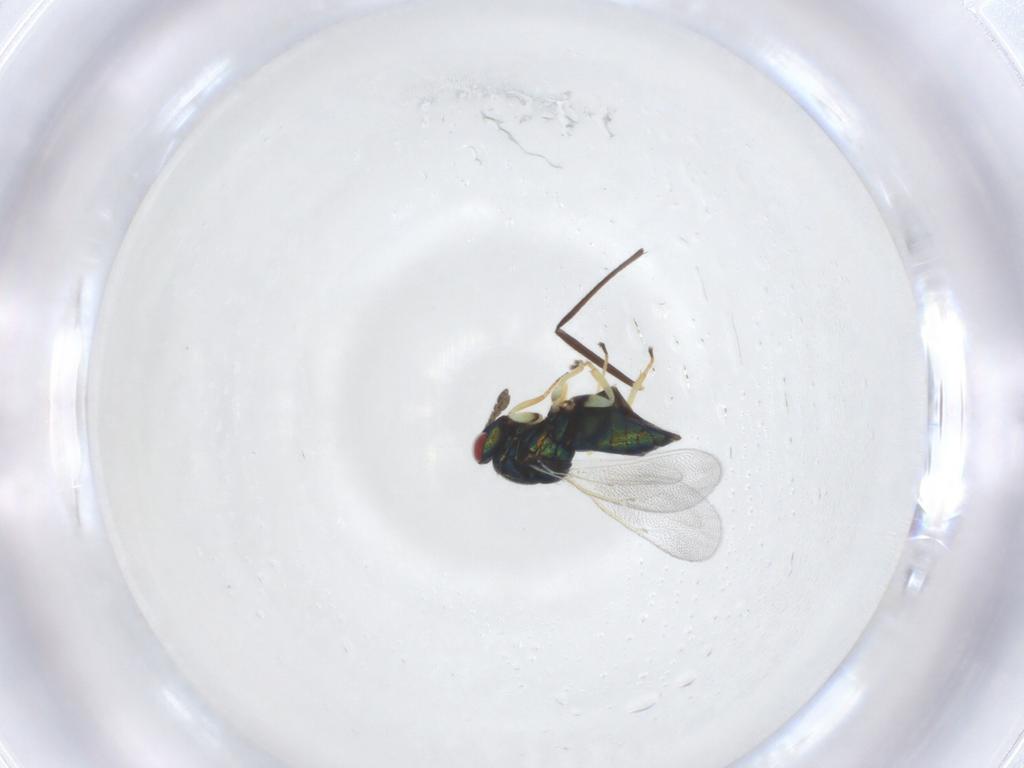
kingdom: Animalia
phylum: Arthropoda
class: Insecta
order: Hymenoptera
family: Eulophidae
